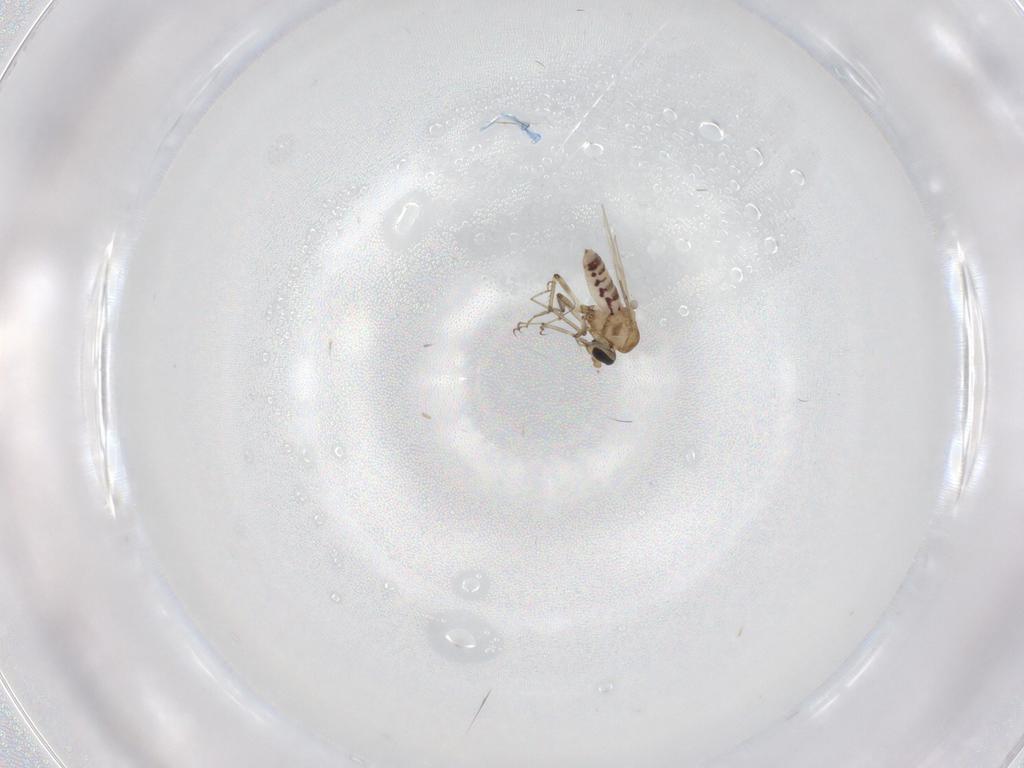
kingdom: Animalia
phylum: Arthropoda
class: Insecta
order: Diptera
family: Ceratopogonidae
